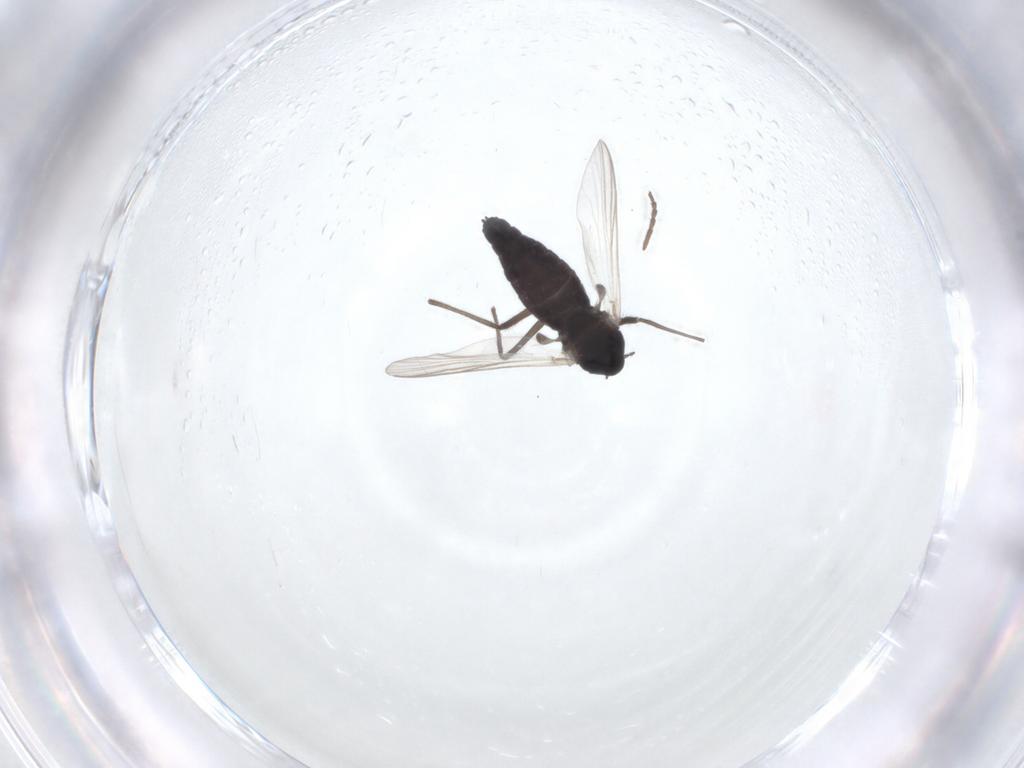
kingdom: Animalia
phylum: Arthropoda
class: Insecta
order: Diptera
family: Chironomidae
